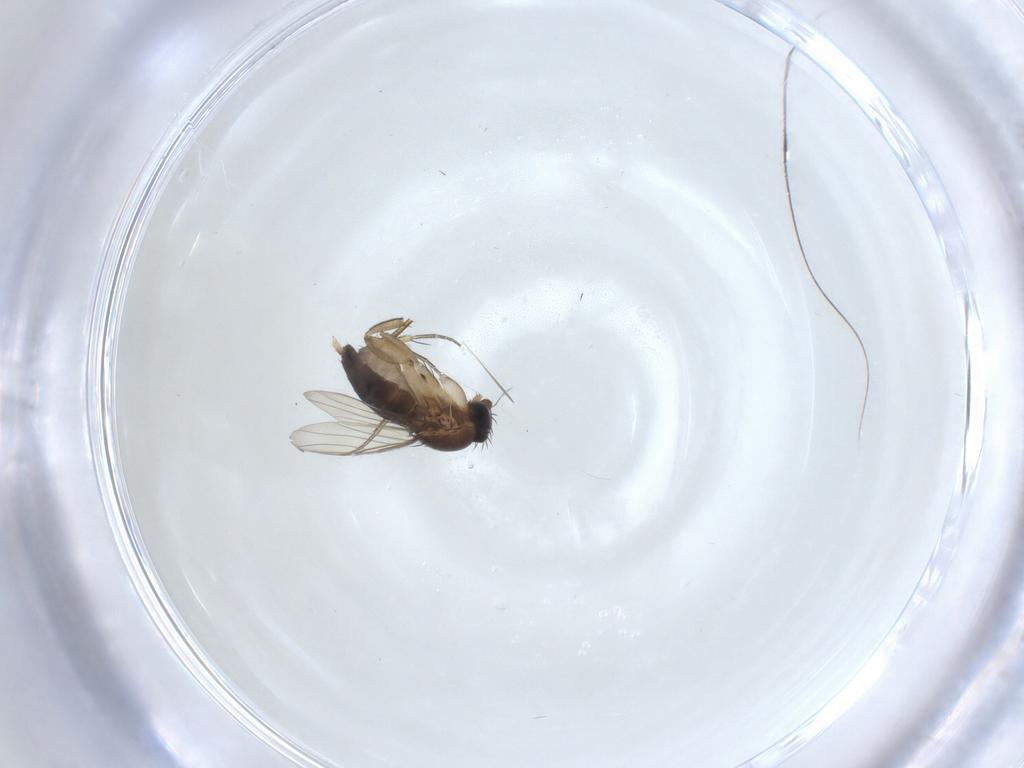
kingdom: Animalia
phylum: Arthropoda
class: Insecta
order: Diptera
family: Phoridae
